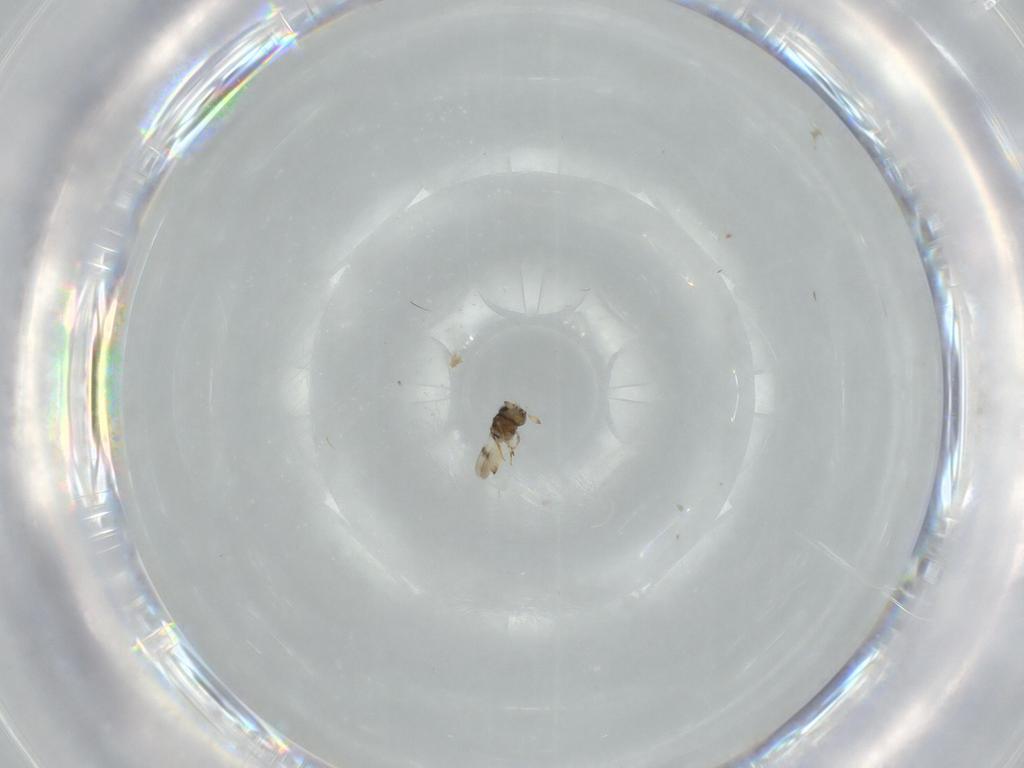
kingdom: Animalia
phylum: Arthropoda
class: Insecta
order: Hymenoptera
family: Scelionidae
